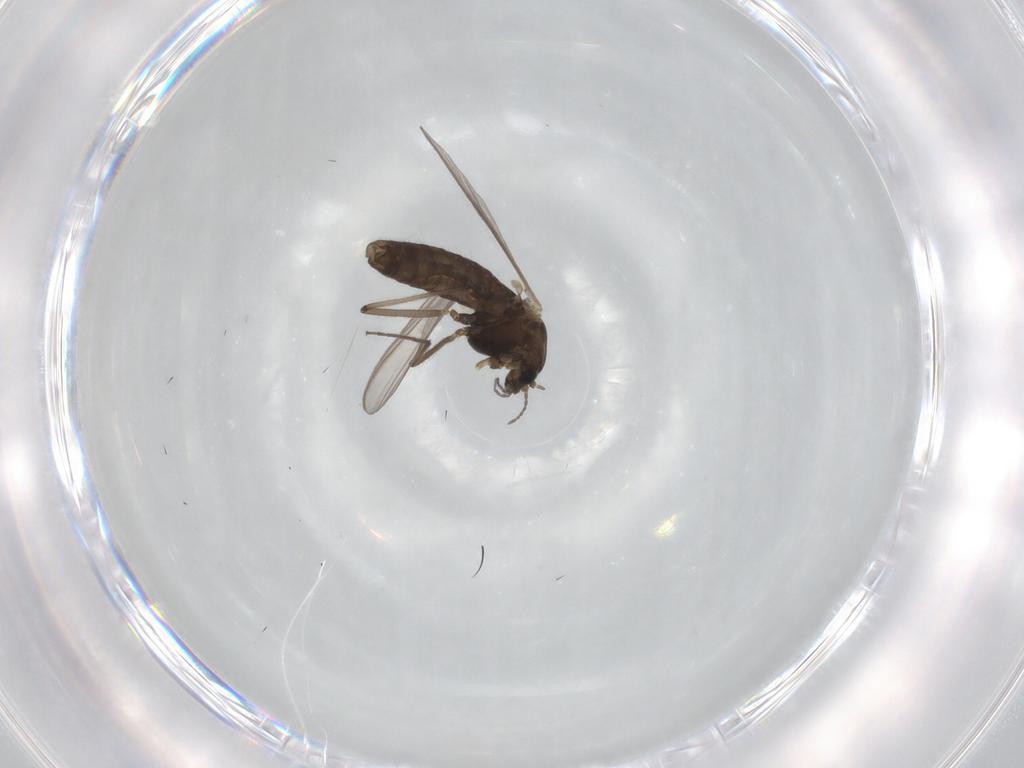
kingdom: Animalia
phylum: Arthropoda
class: Insecta
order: Diptera
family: Chironomidae
